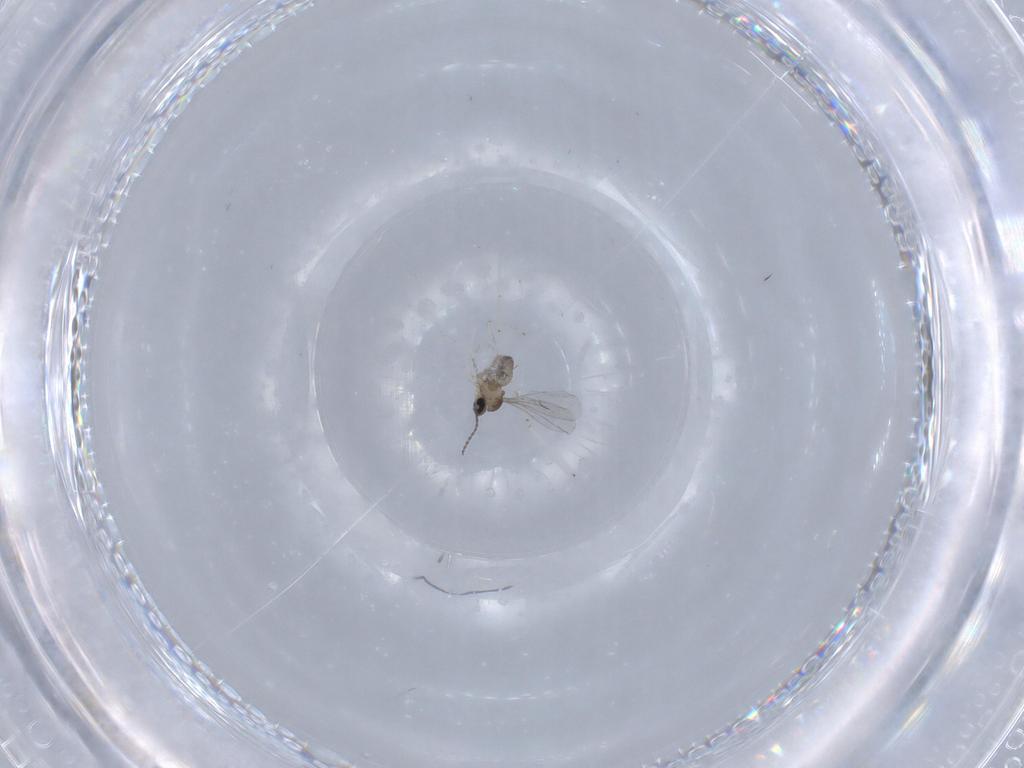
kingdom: Animalia
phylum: Arthropoda
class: Insecta
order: Diptera
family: Cecidomyiidae
